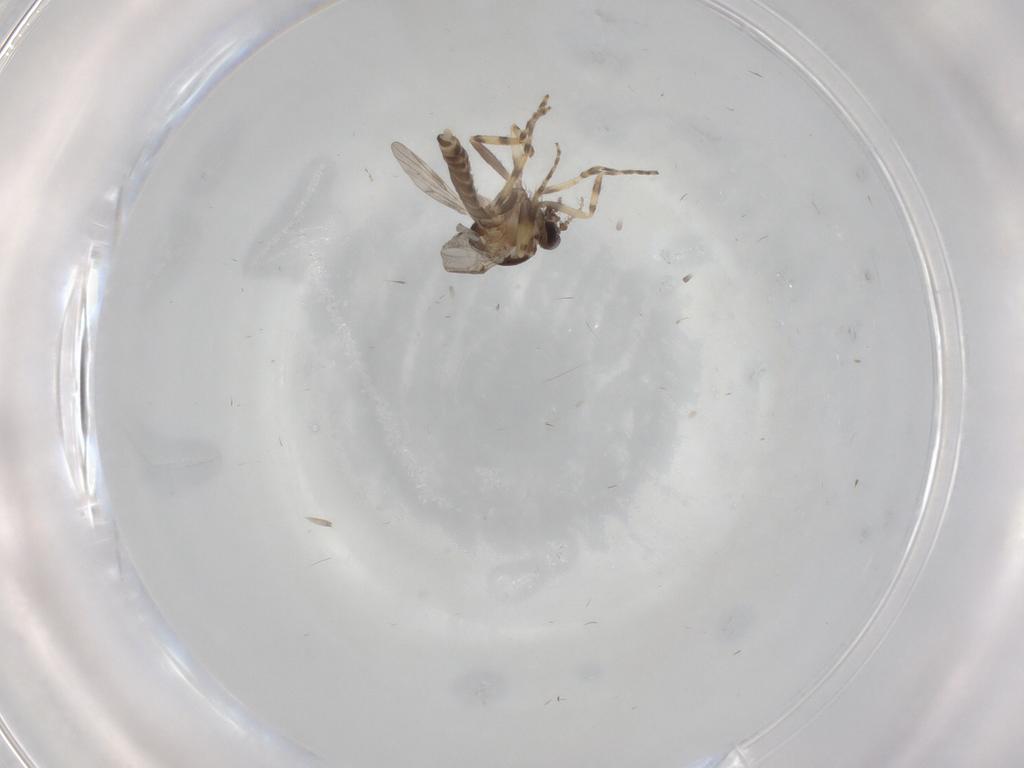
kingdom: Animalia
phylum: Arthropoda
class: Insecta
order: Diptera
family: Ceratopogonidae
